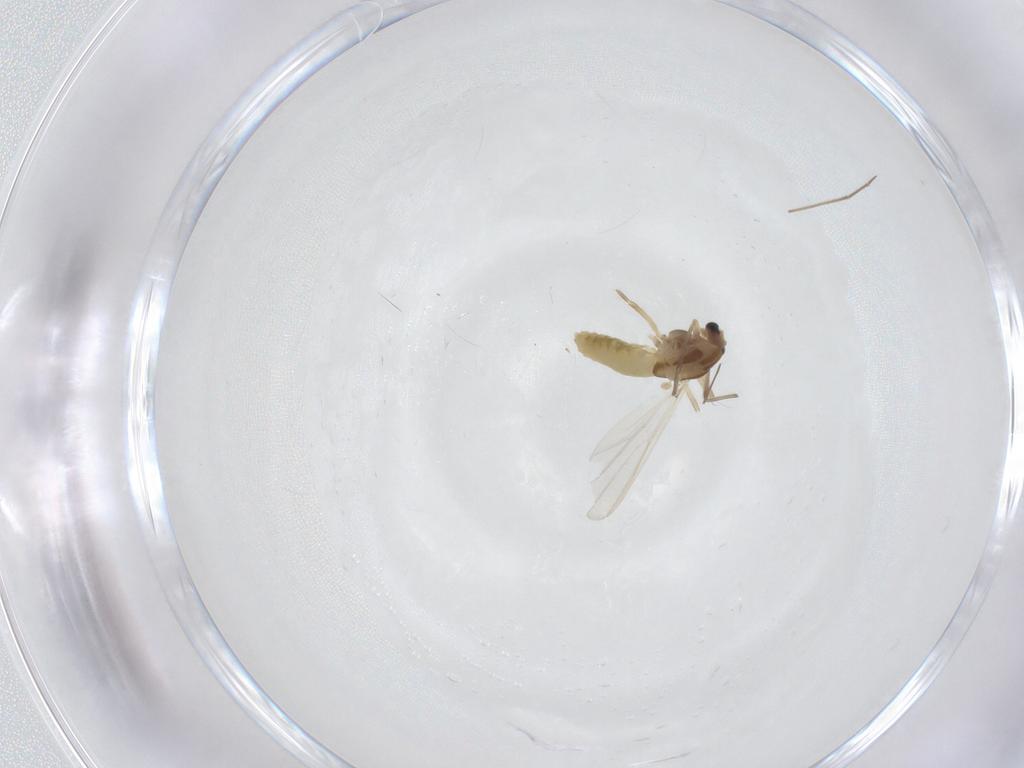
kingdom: Animalia
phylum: Arthropoda
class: Insecta
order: Diptera
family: Chironomidae
